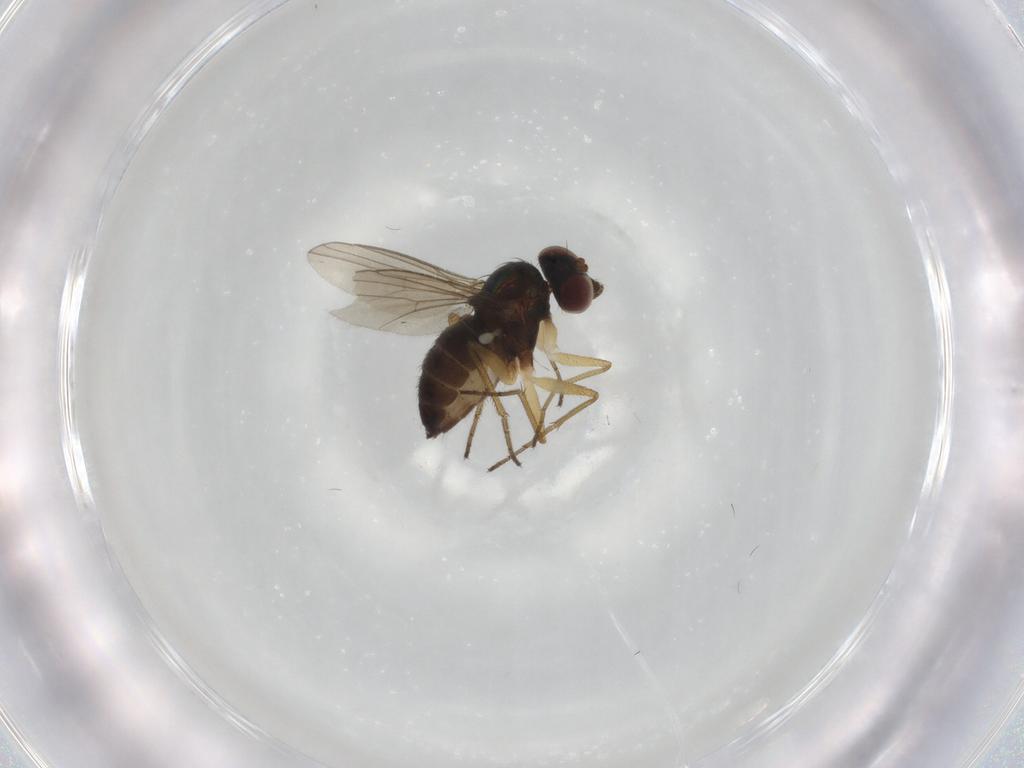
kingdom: Animalia
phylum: Arthropoda
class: Insecta
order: Diptera
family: Dolichopodidae
